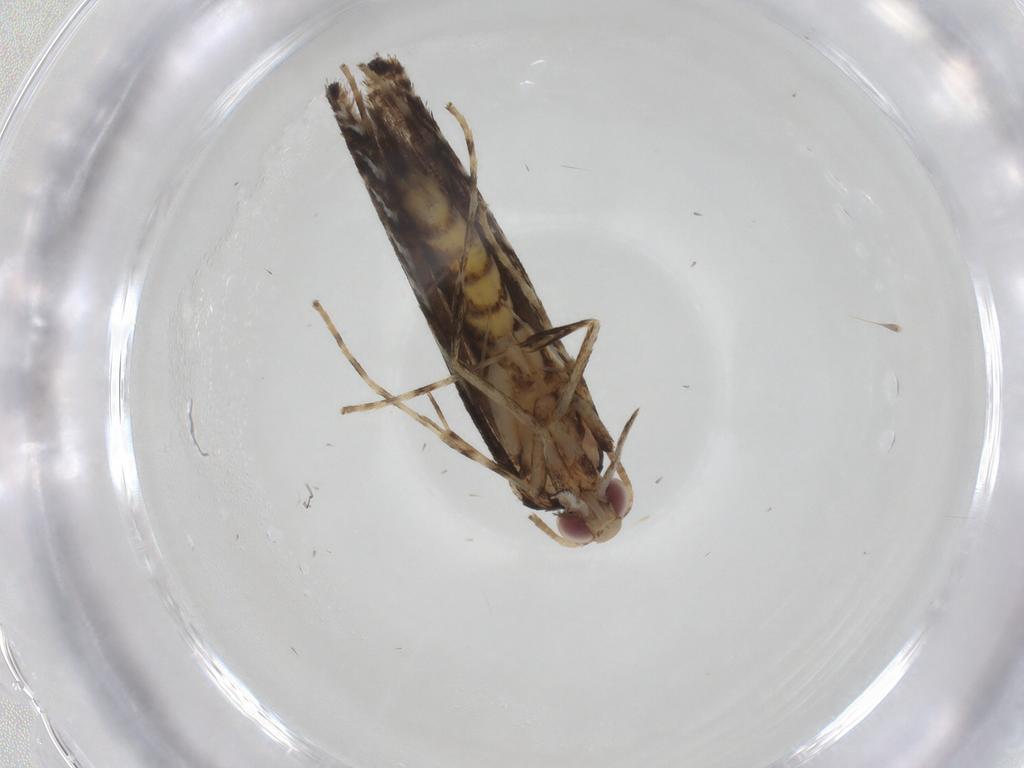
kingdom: Animalia
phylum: Arthropoda
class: Insecta
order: Lepidoptera
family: Gracillariidae
